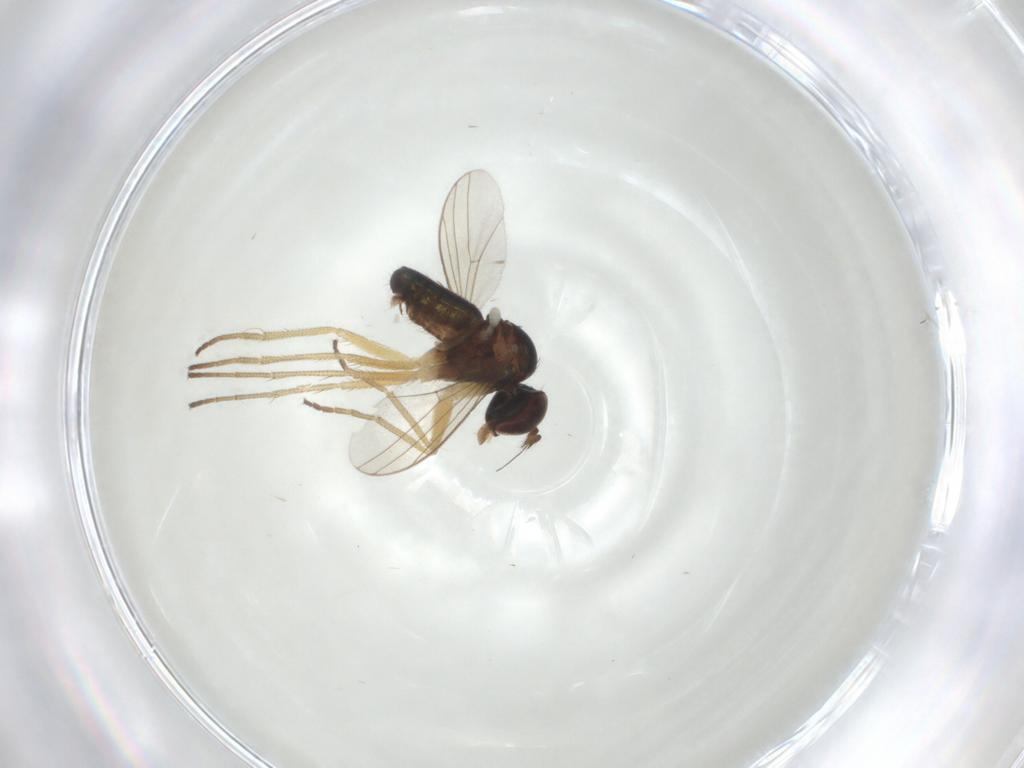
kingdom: Animalia
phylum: Arthropoda
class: Insecta
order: Diptera
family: Dolichopodidae
